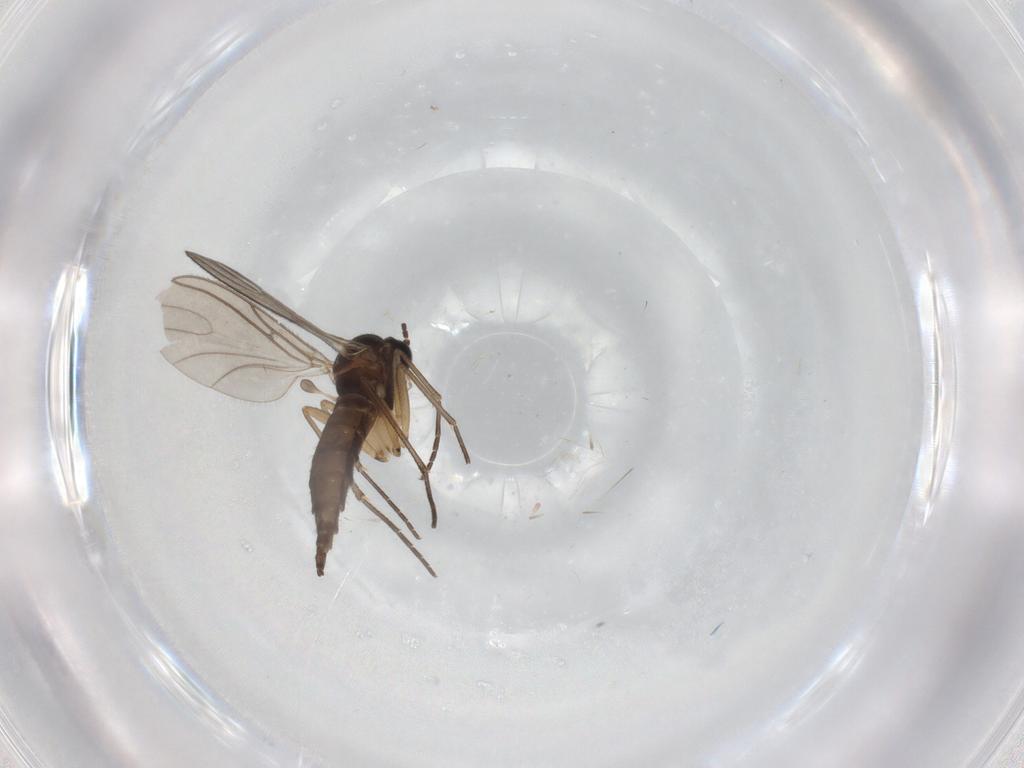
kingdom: Animalia
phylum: Arthropoda
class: Insecta
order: Diptera
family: Sciaridae
